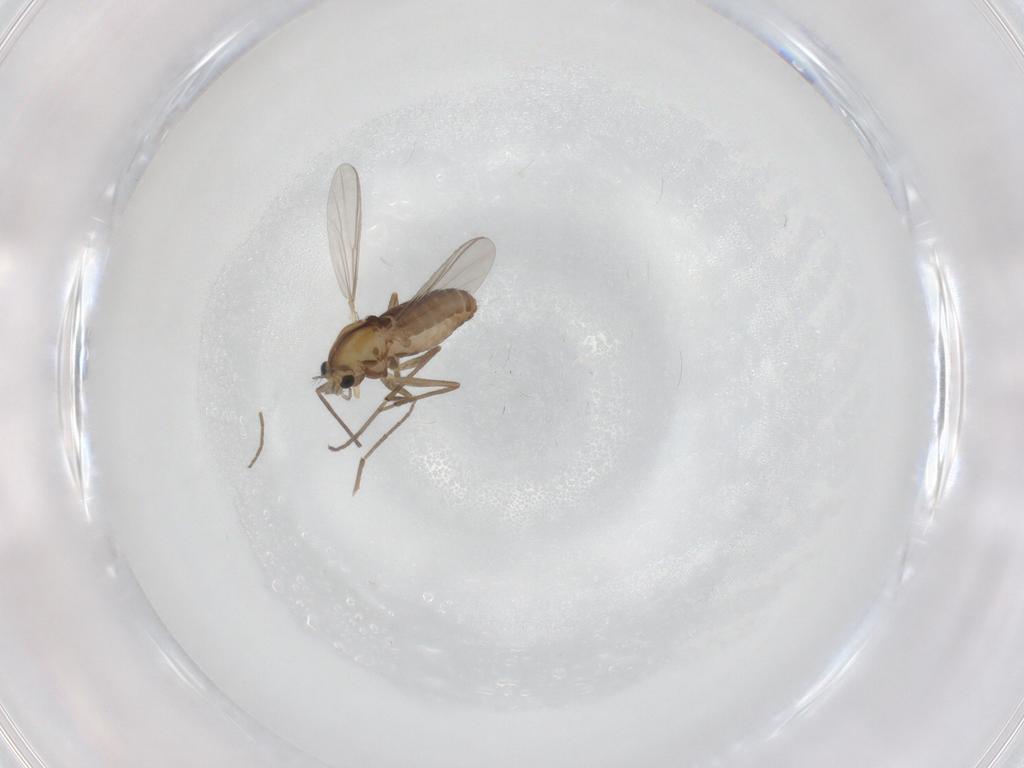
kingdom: Animalia
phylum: Arthropoda
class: Insecta
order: Diptera
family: Chironomidae
